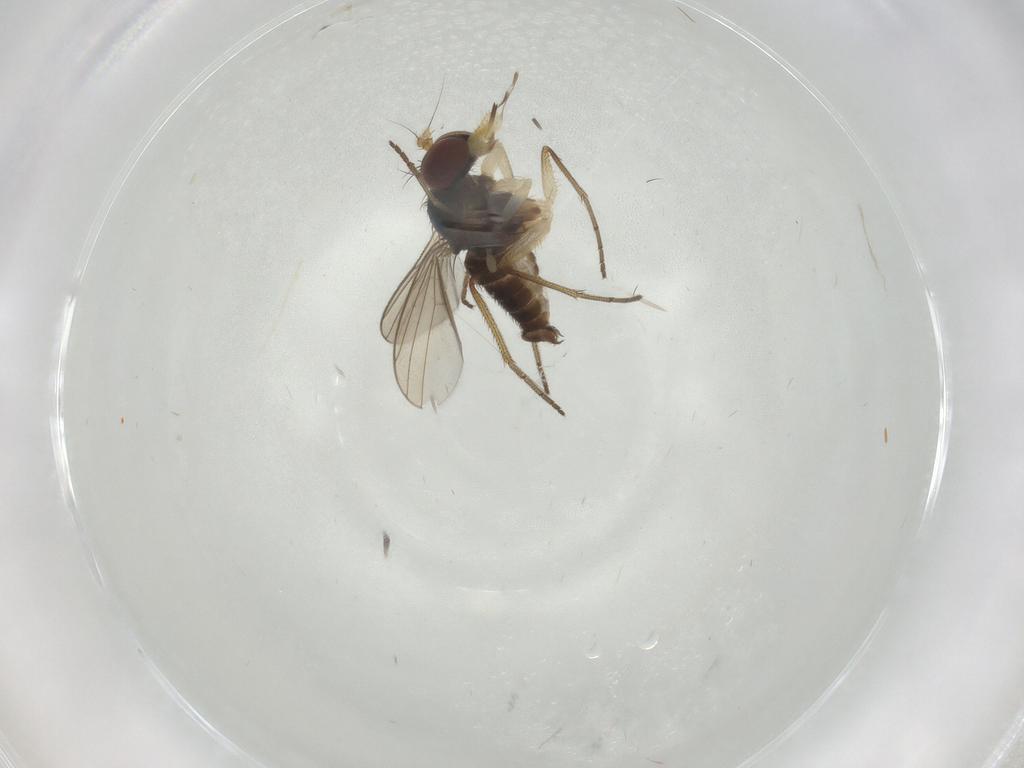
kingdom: Animalia
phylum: Arthropoda
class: Insecta
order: Diptera
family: Dolichopodidae
